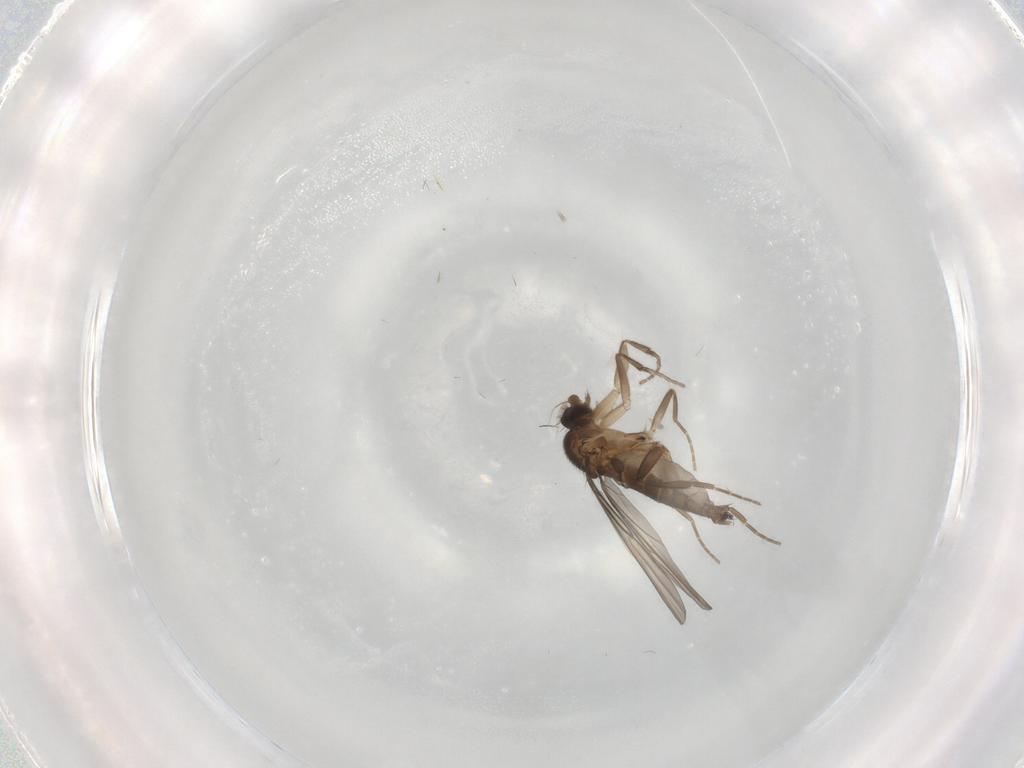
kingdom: Animalia
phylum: Arthropoda
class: Insecta
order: Diptera
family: Phoridae
